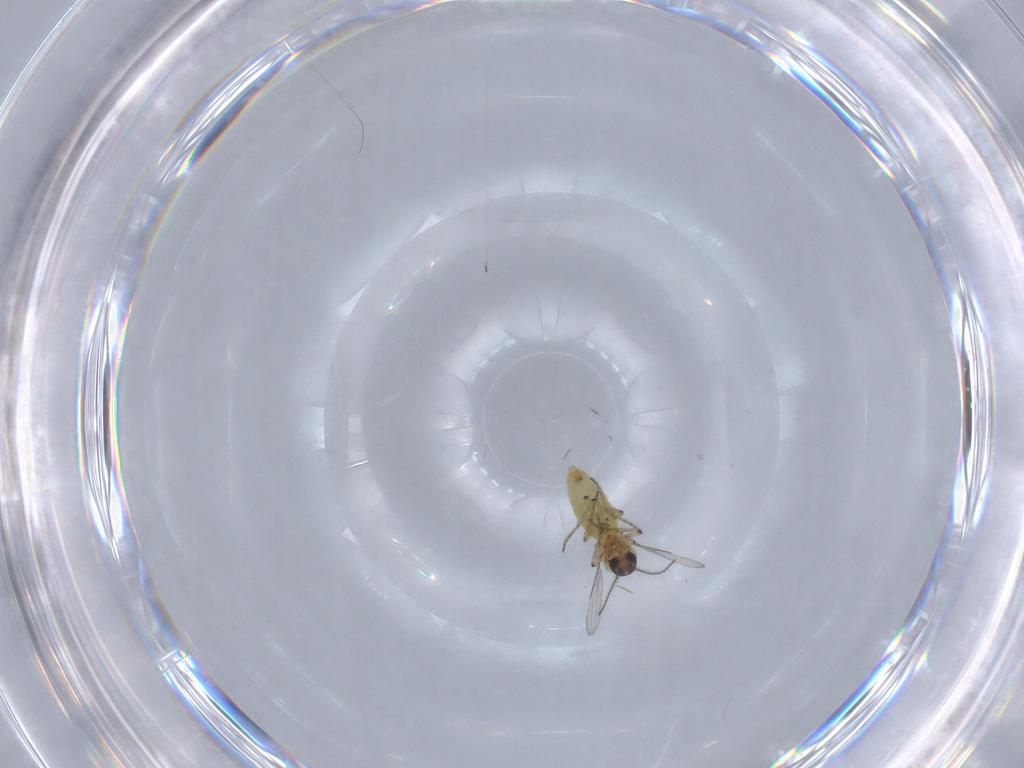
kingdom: Animalia
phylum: Arthropoda
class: Insecta
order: Diptera
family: Ceratopogonidae
